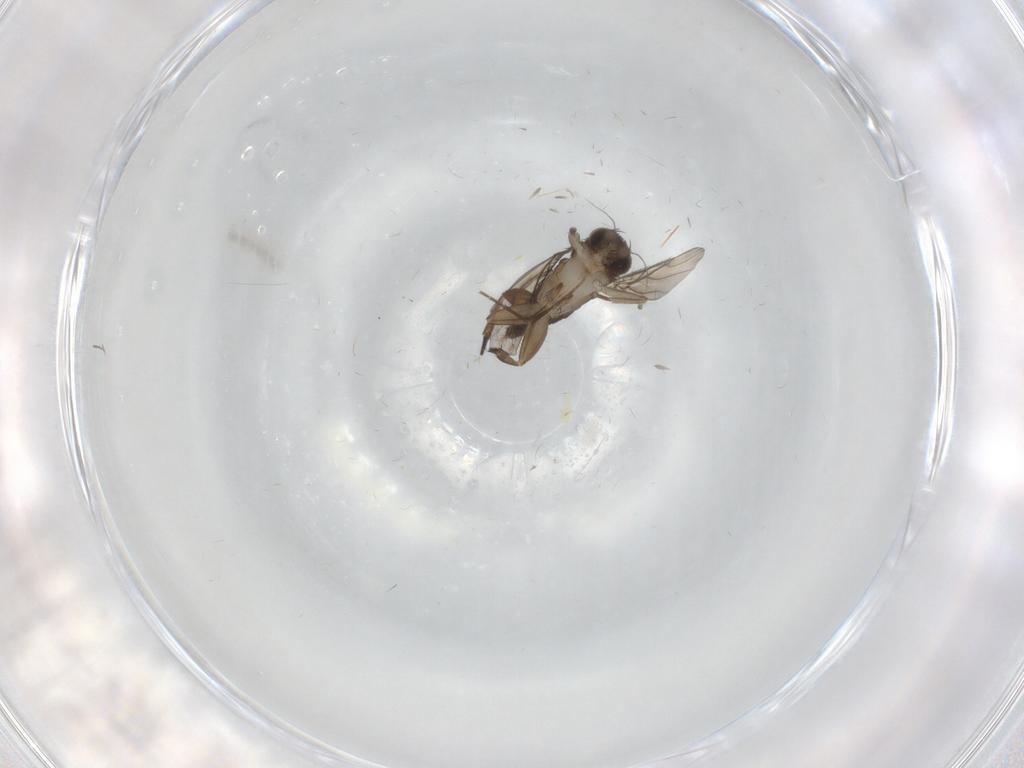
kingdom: Animalia
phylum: Arthropoda
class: Insecta
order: Diptera
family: Phoridae
